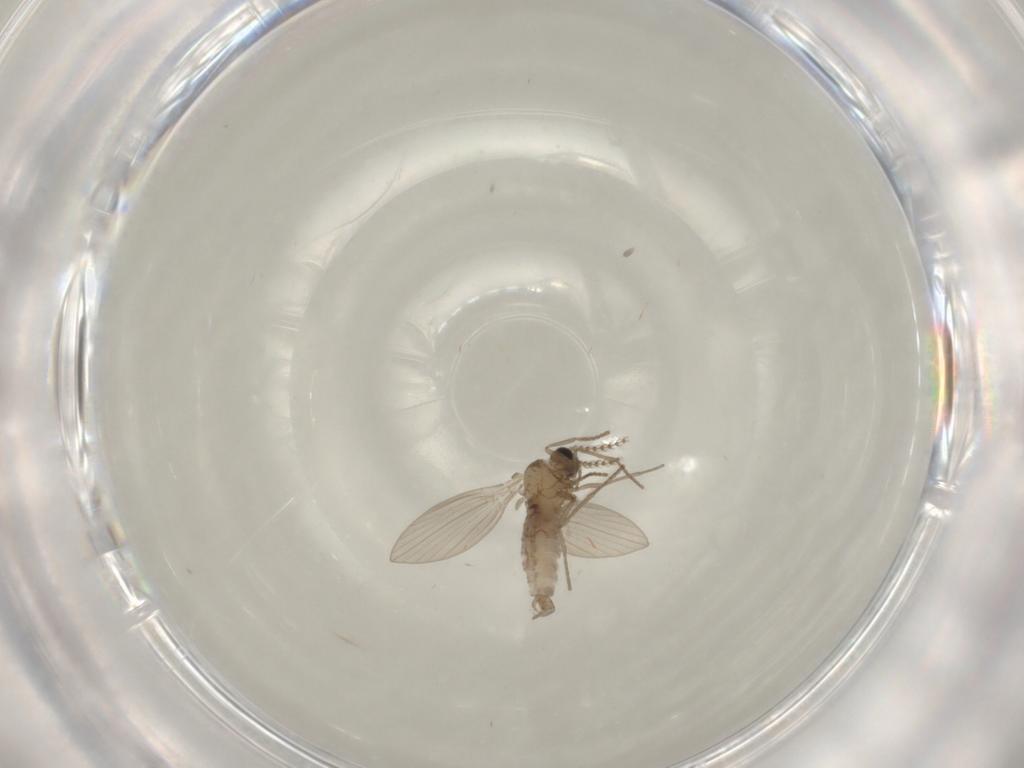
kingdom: Animalia
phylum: Arthropoda
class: Insecta
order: Diptera
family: Psychodidae
